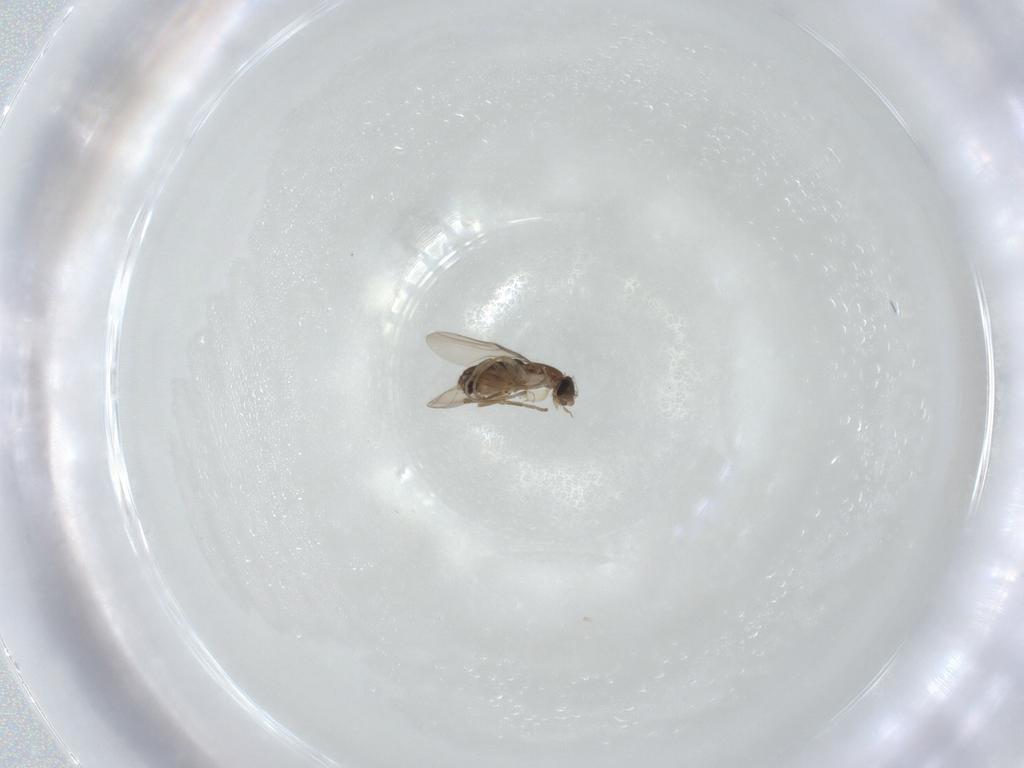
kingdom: Animalia
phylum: Arthropoda
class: Insecta
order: Diptera
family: Phoridae
